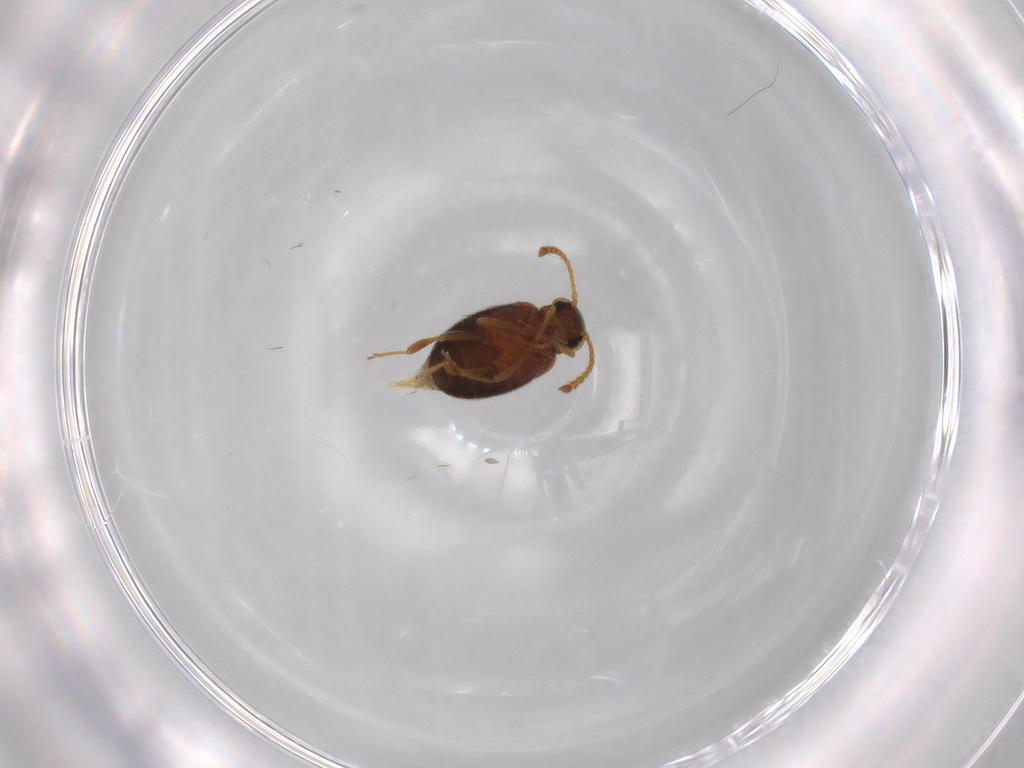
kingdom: Animalia
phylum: Arthropoda
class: Insecta
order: Coleoptera
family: Aderidae
